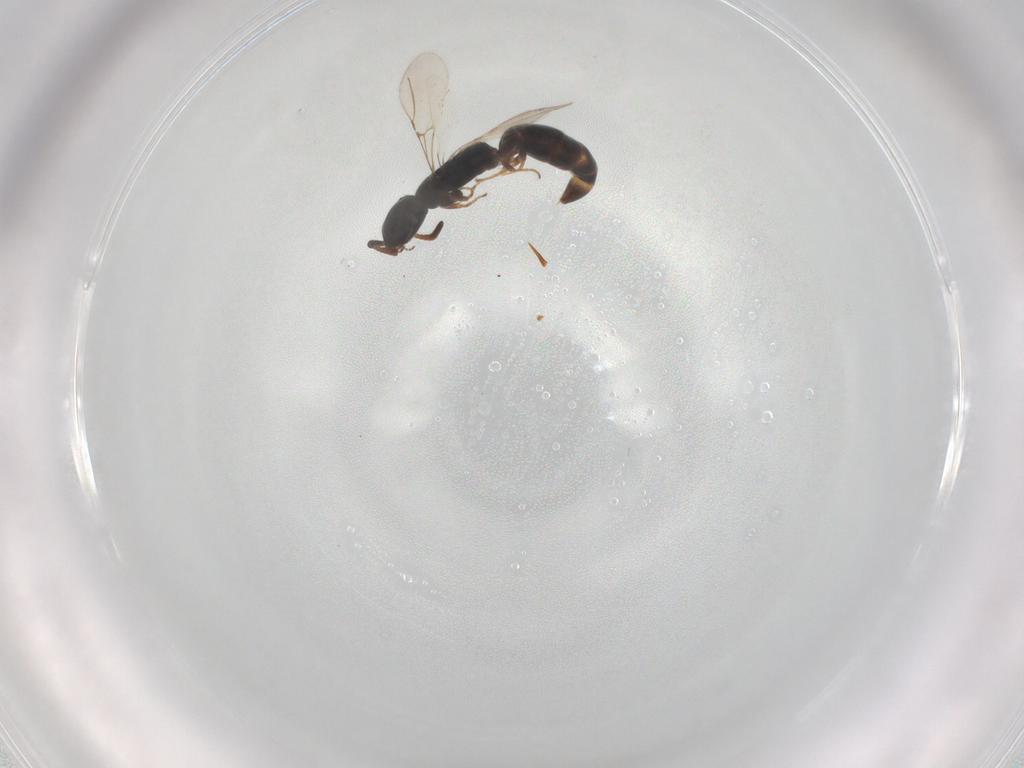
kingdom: Animalia
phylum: Arthropoda
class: Insecta
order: Hymenoptera
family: Bethylidae
